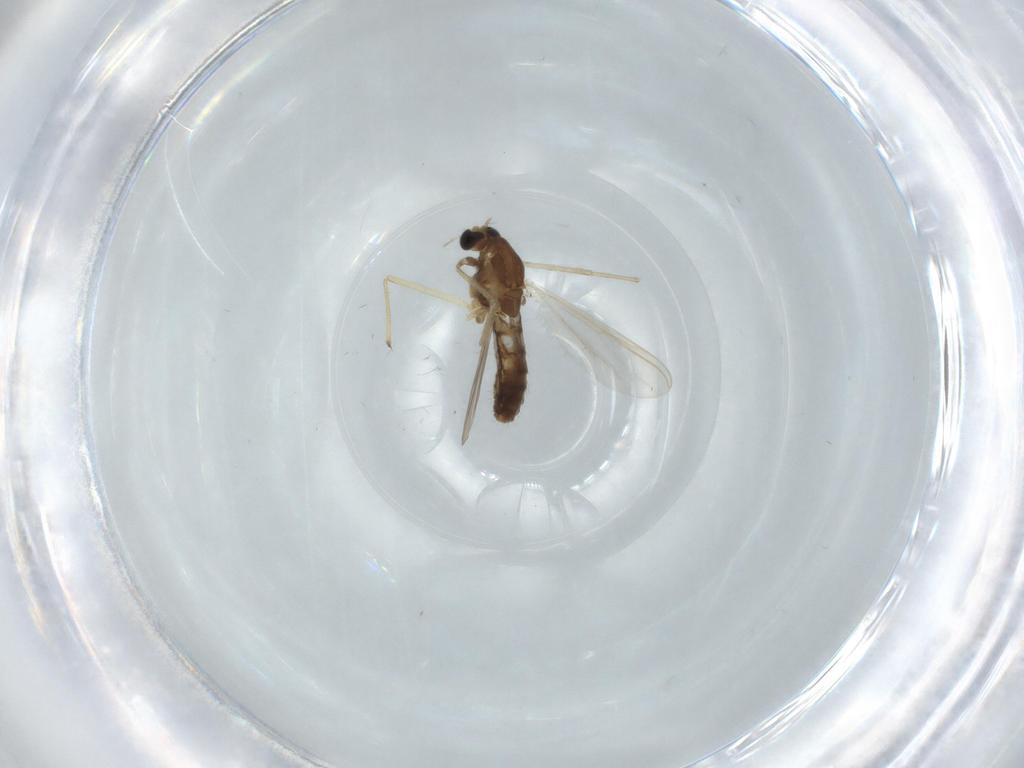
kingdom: Animalia
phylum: Arthropoda
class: Insecta
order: Diptera
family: Chironomidae
